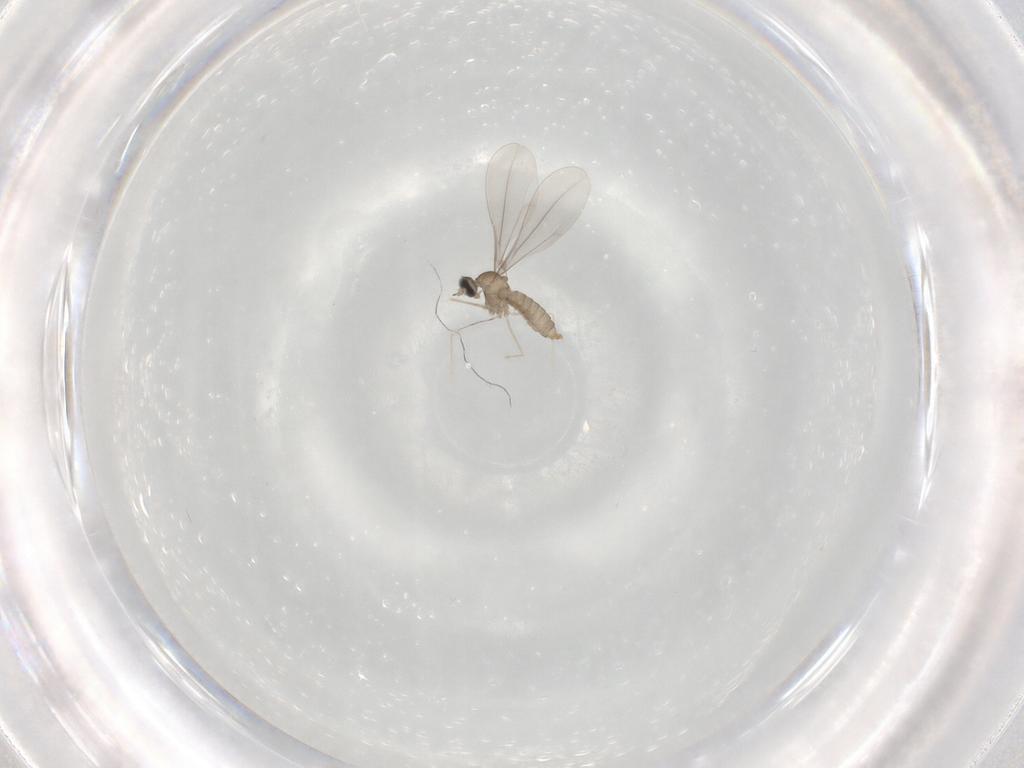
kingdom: Animalia
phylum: Arthropoda
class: Insecta
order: Diptera
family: Cecidomyiidae
